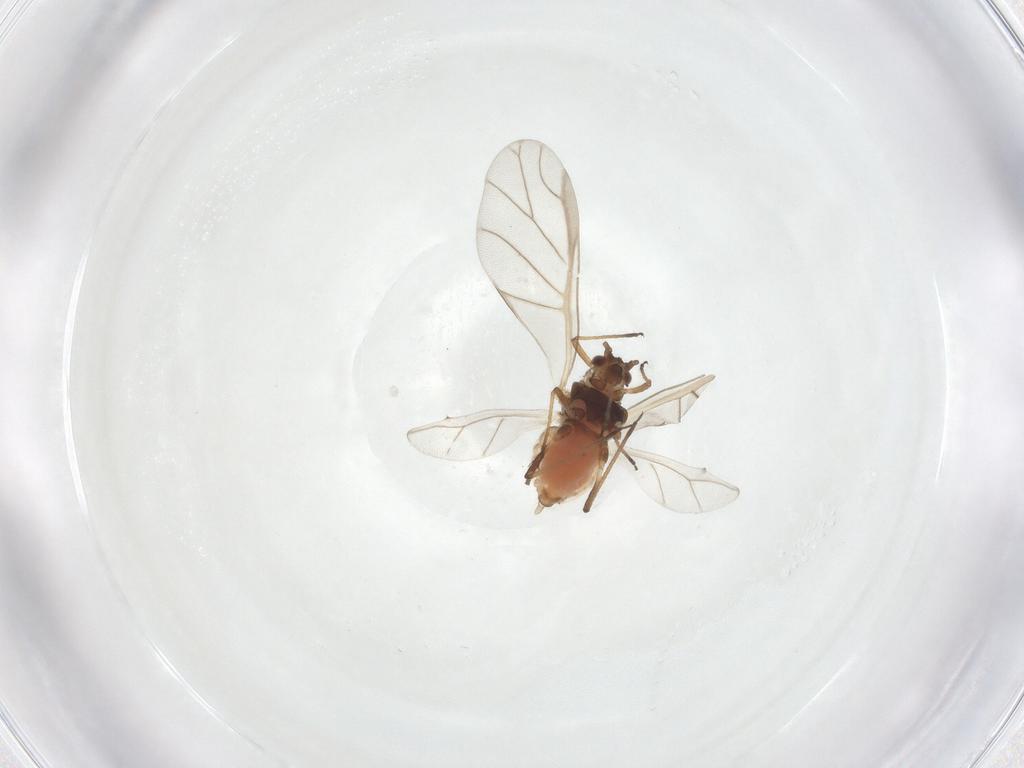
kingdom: Animalia
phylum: Arthropoda
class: Insecta
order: Hemiptera
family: Aphididae
